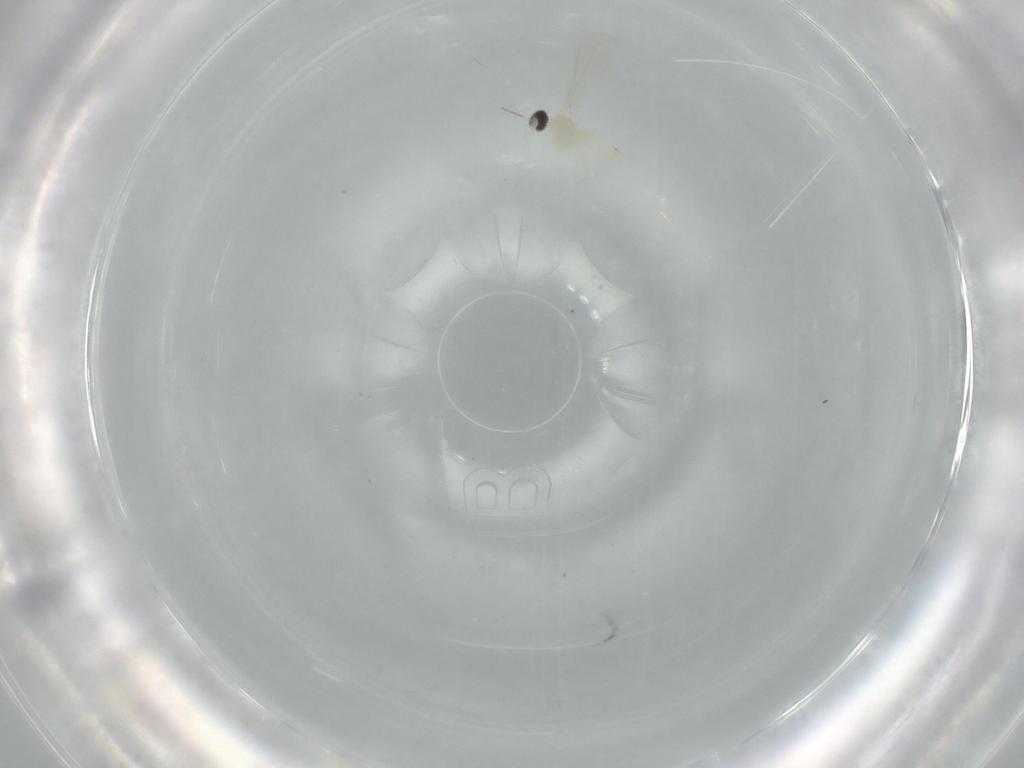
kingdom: Animalia
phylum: Arthropoda
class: Insecta
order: Diptera
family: Cecidomyiidae
